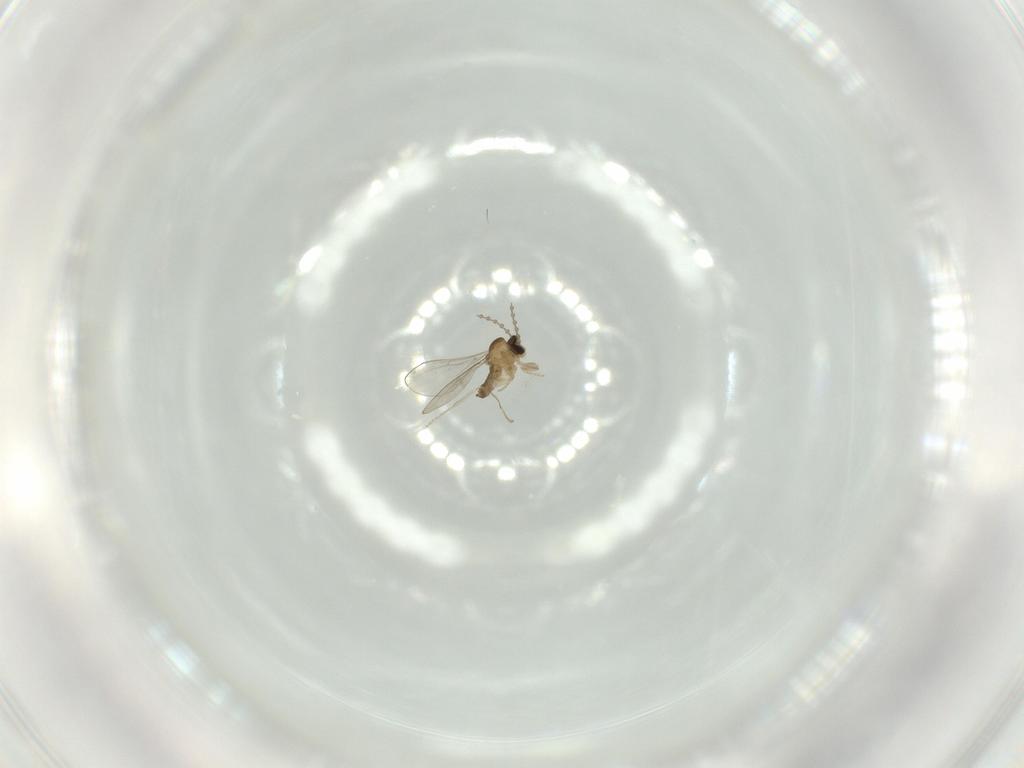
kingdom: Animalia
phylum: Arthropoda
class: Insecta
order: Diptera
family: Cecidomyiidae
